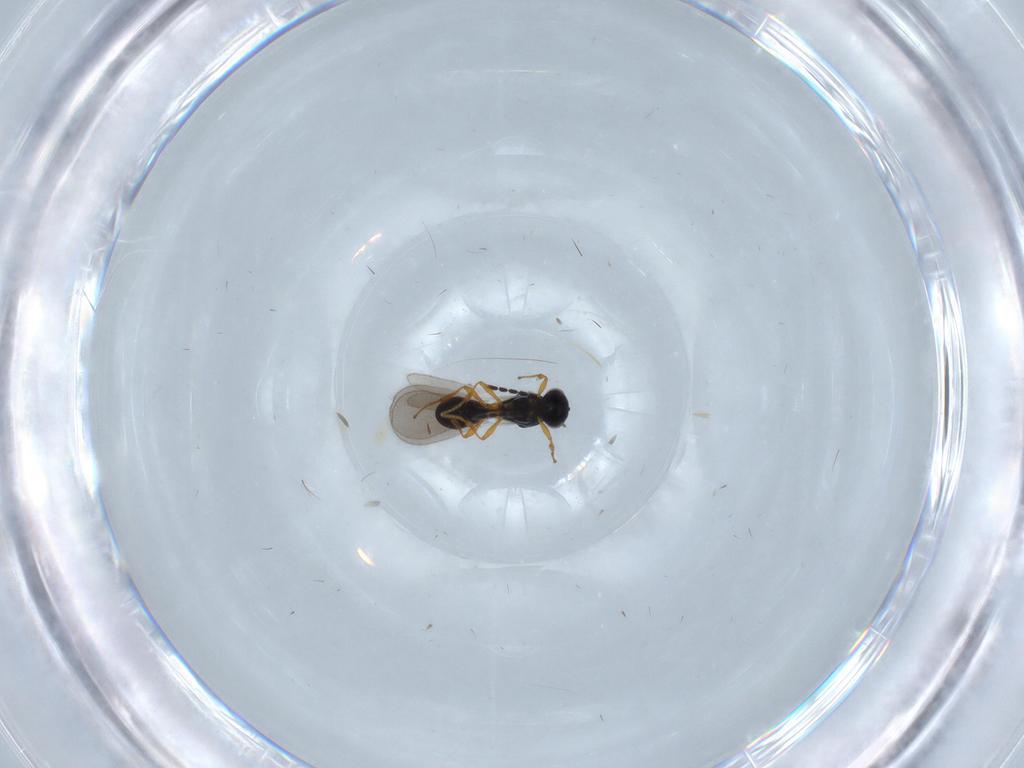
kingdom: Animalia
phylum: Arthropoda
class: Insecta
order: Hymenoptera
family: Platygastridae
